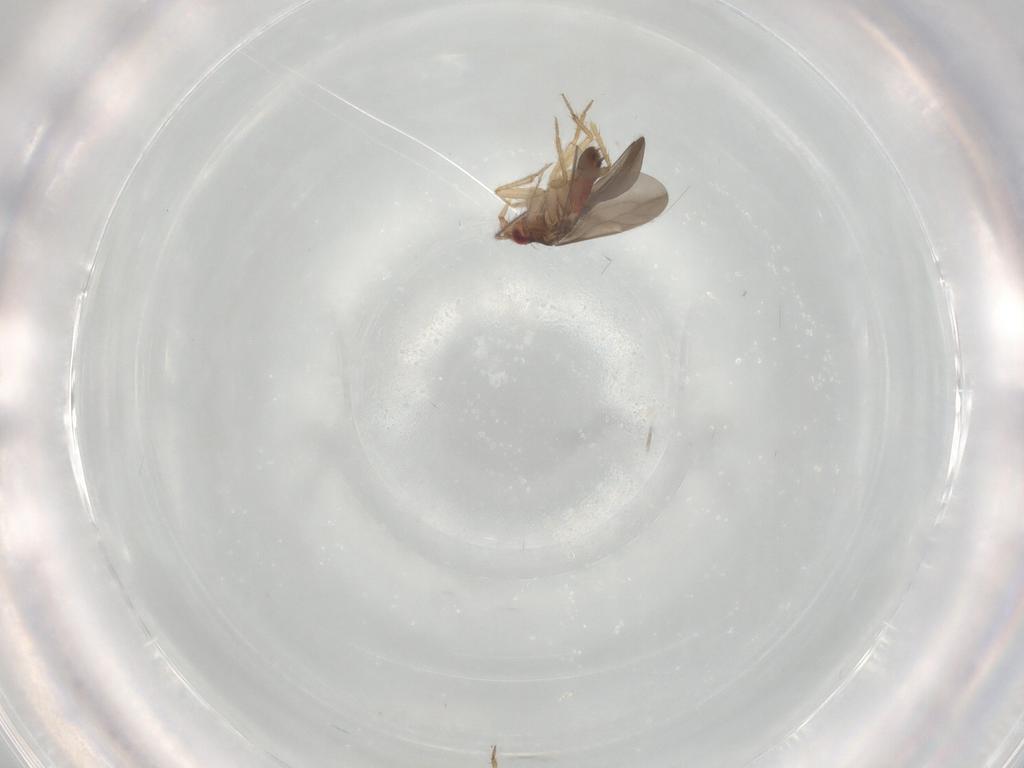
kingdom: Animalia
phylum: Arthropoda
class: Insecta
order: Hemiptera
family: Ceratocombidae
